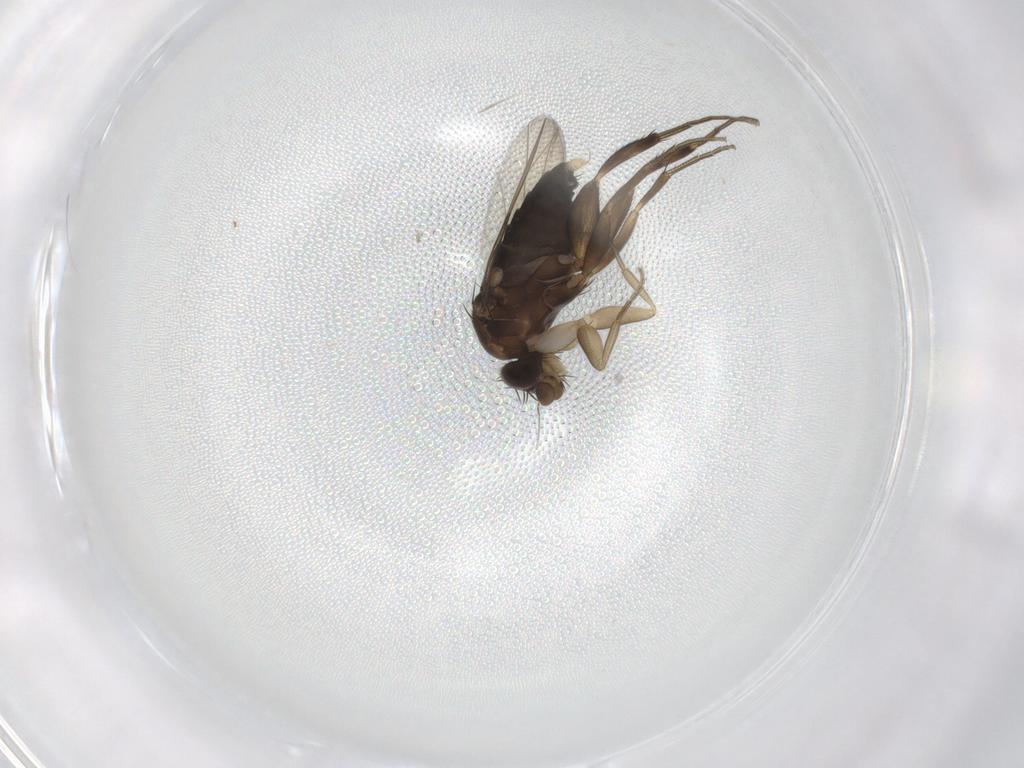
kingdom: Animalia
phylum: Arthropoda
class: Insecta
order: Diptera
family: Phoridae
